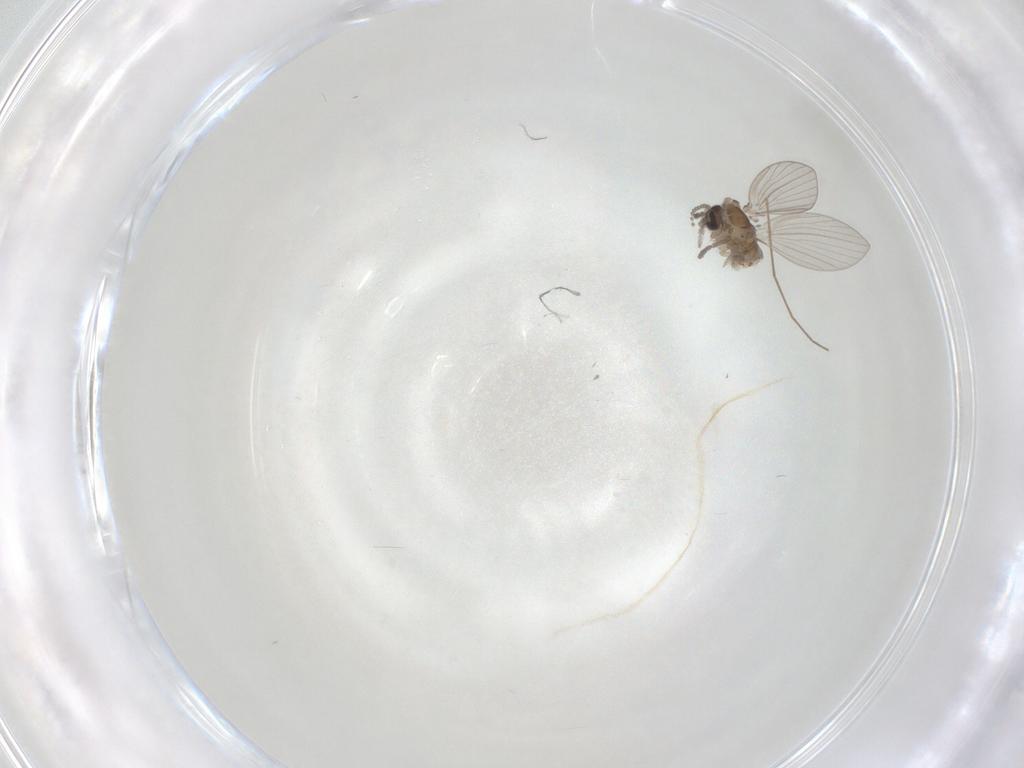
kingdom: Animalia
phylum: Arthropoda
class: Insecta
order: Diptera
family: Psychodidae
